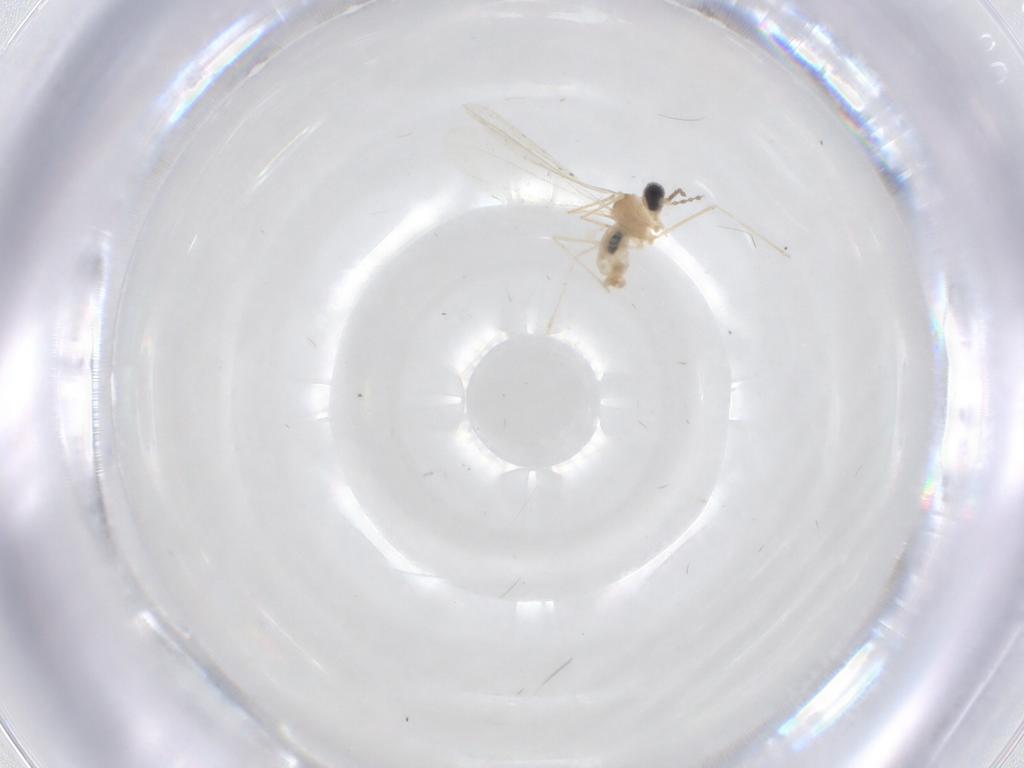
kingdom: Animalia
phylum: Arthropoda
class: Insecta
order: Diptera
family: Cecidomyiidae
